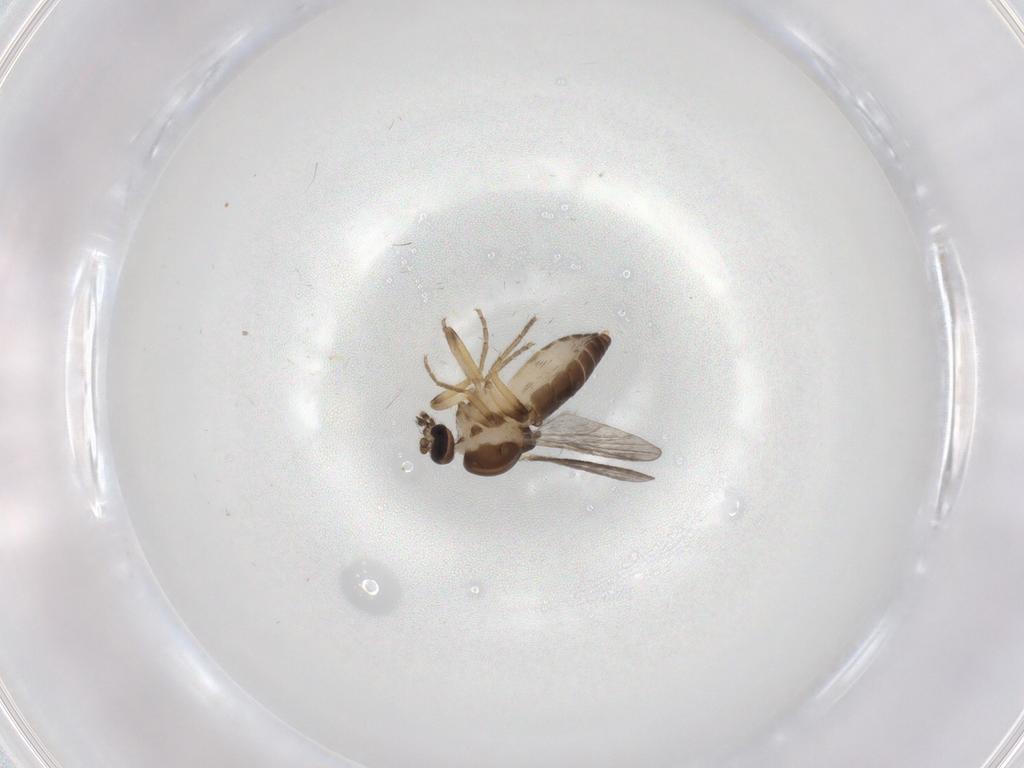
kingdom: Animalia
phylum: Arthropoda
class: Insecta
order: Diptera
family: Ceratopogonidae
